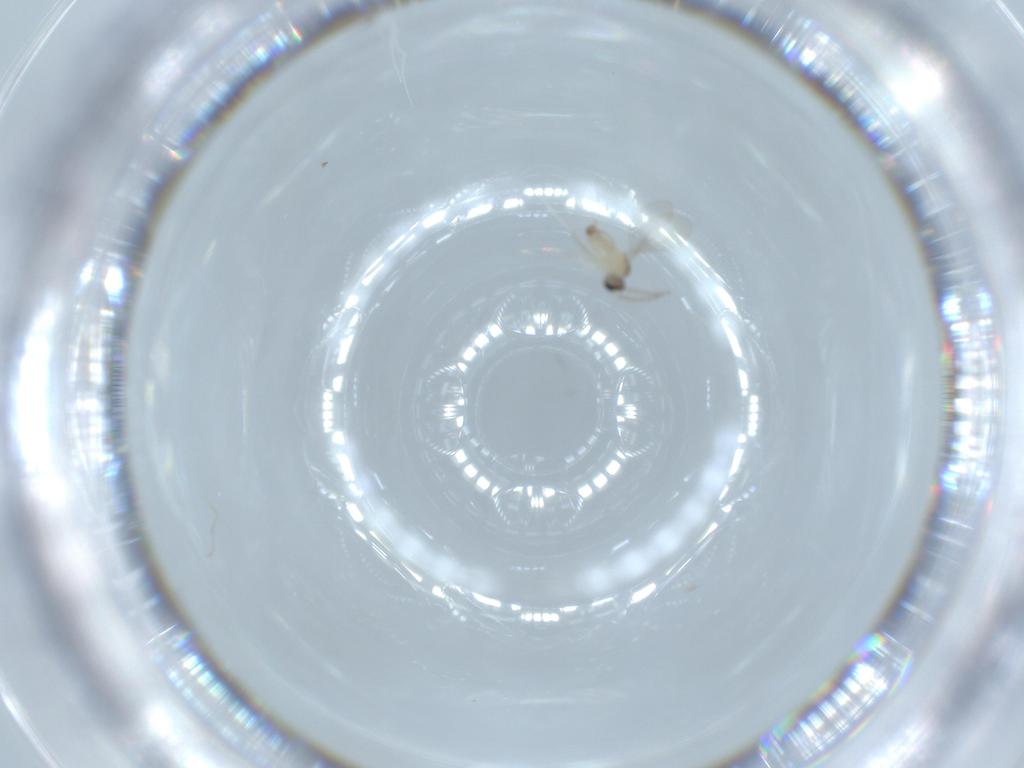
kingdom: Animalia
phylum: Arthropoda
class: Insecta
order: Diptera
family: Cecidomyiidae
